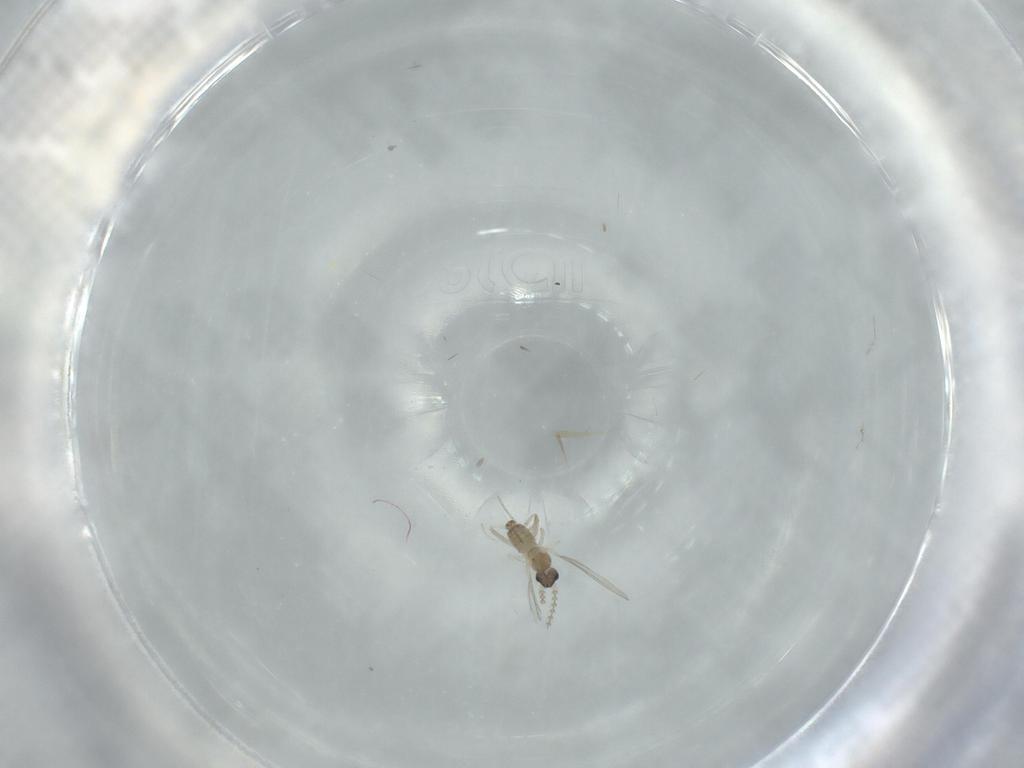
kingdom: Animalia
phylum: Arthropoda
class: Insecta
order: Diptera
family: Cecidomyiidae
